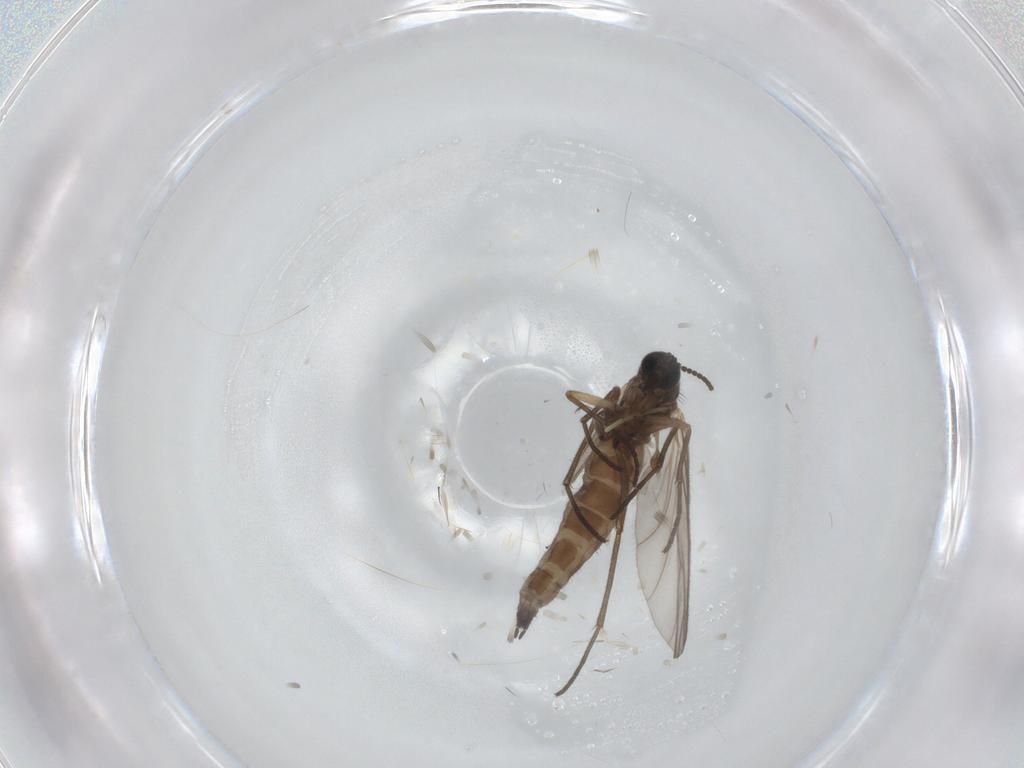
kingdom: Animalia
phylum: Arthropoda
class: Insecta
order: Diptera
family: Sciaridae
